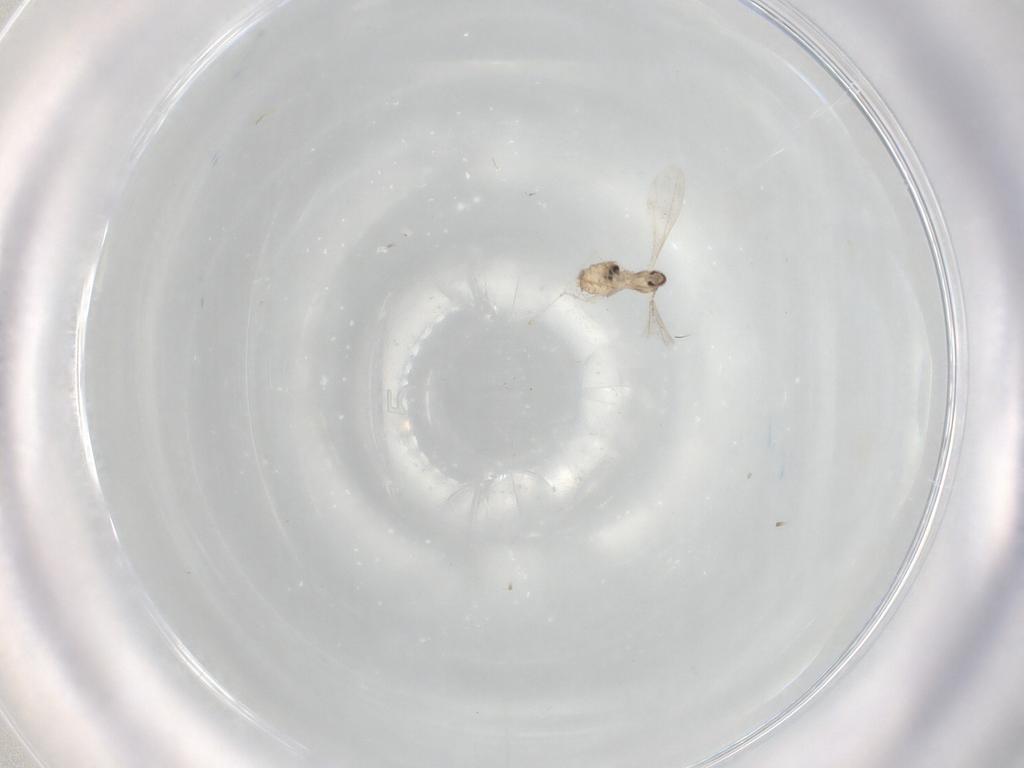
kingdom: Animalia
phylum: Arthropoda
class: Insecta
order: Diptera
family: Cecidomyiidae
